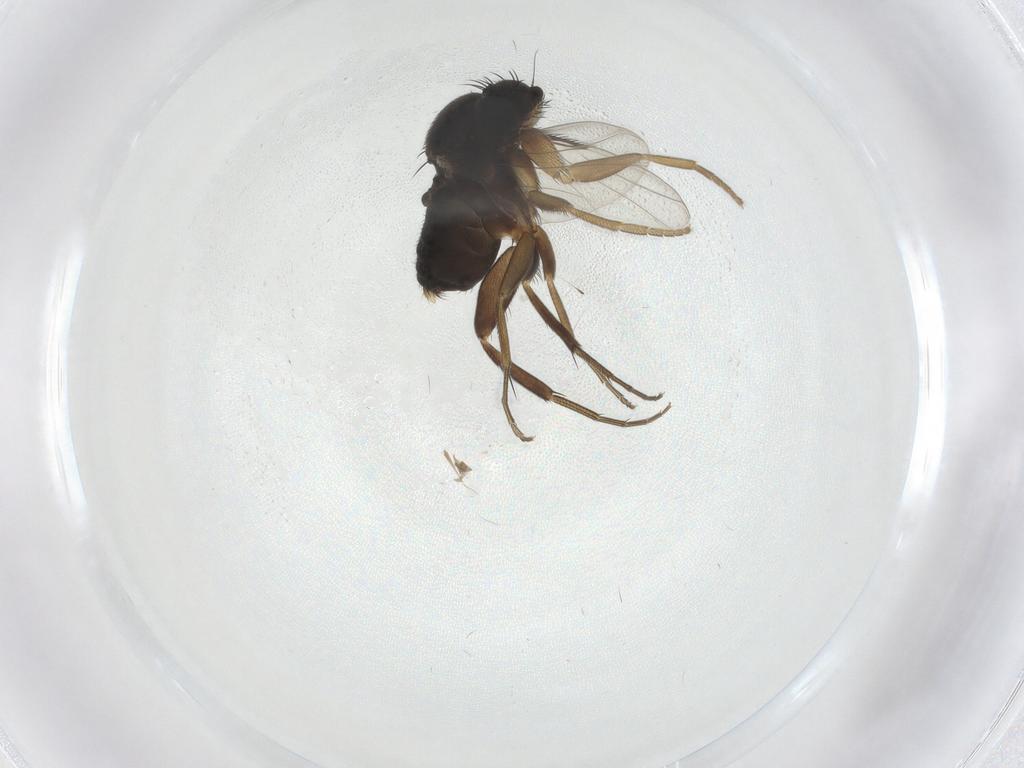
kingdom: Animalia
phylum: Arthropoda
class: Insecta
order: Diptera
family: Phoridae
